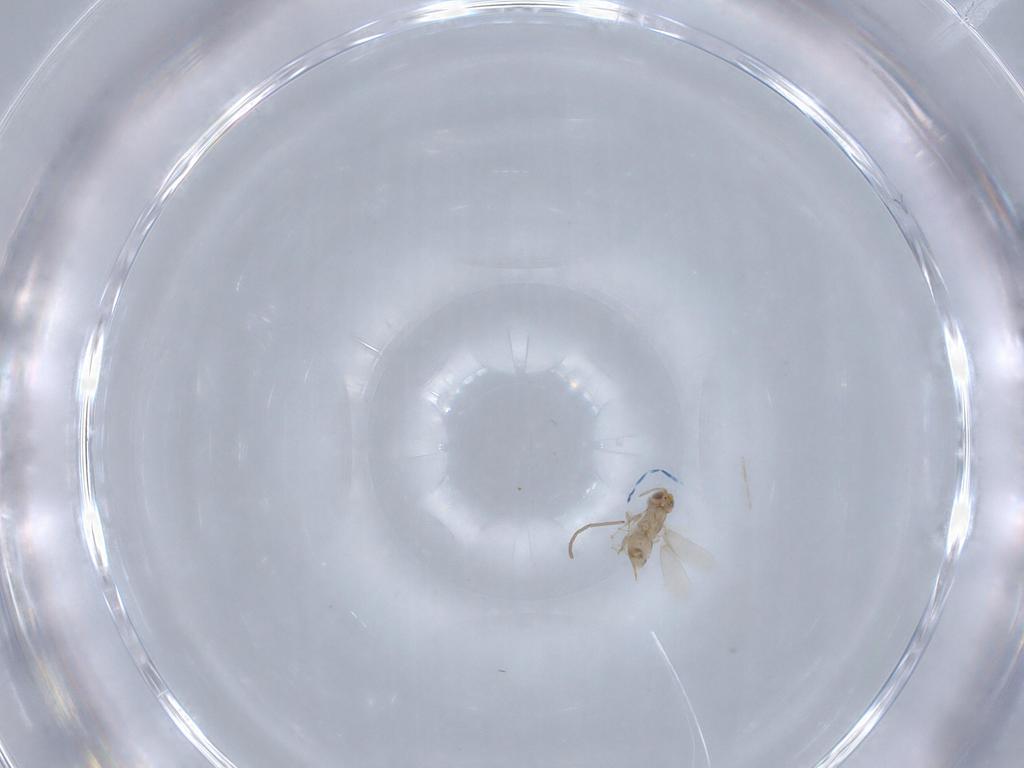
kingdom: Animalia
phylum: Arthropoda
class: Insecta
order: Hymenoptera
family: Aphelinidae
